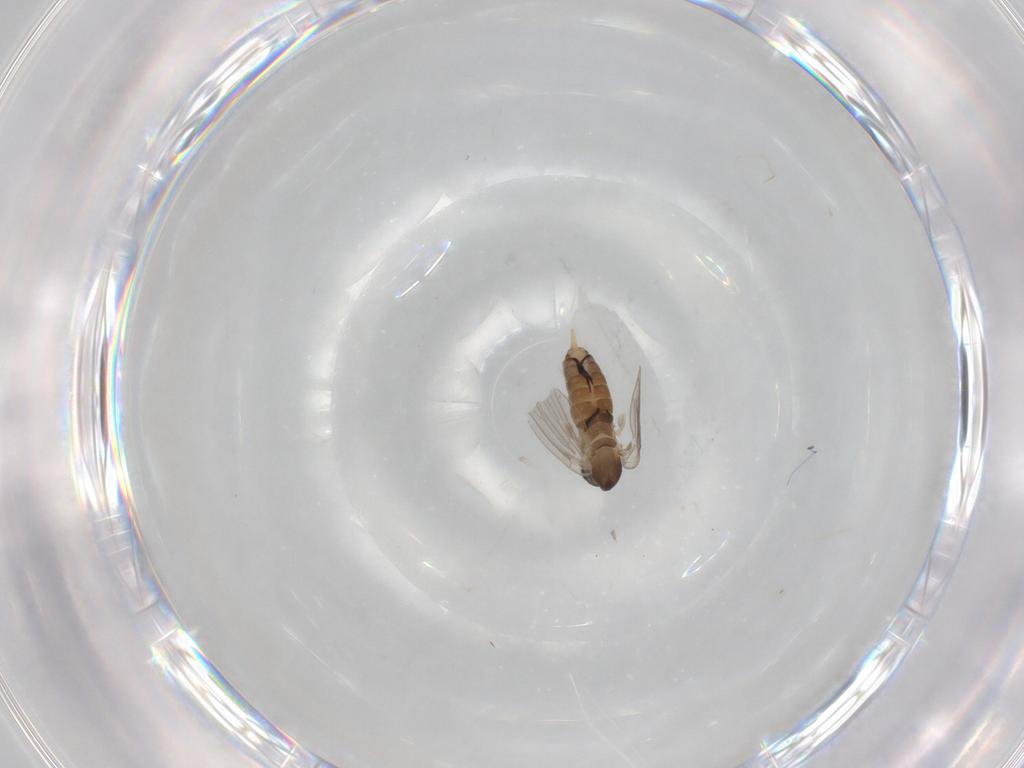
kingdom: Animalia
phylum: Arthropoda
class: Insecta
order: Diptera
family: Psychodidae
